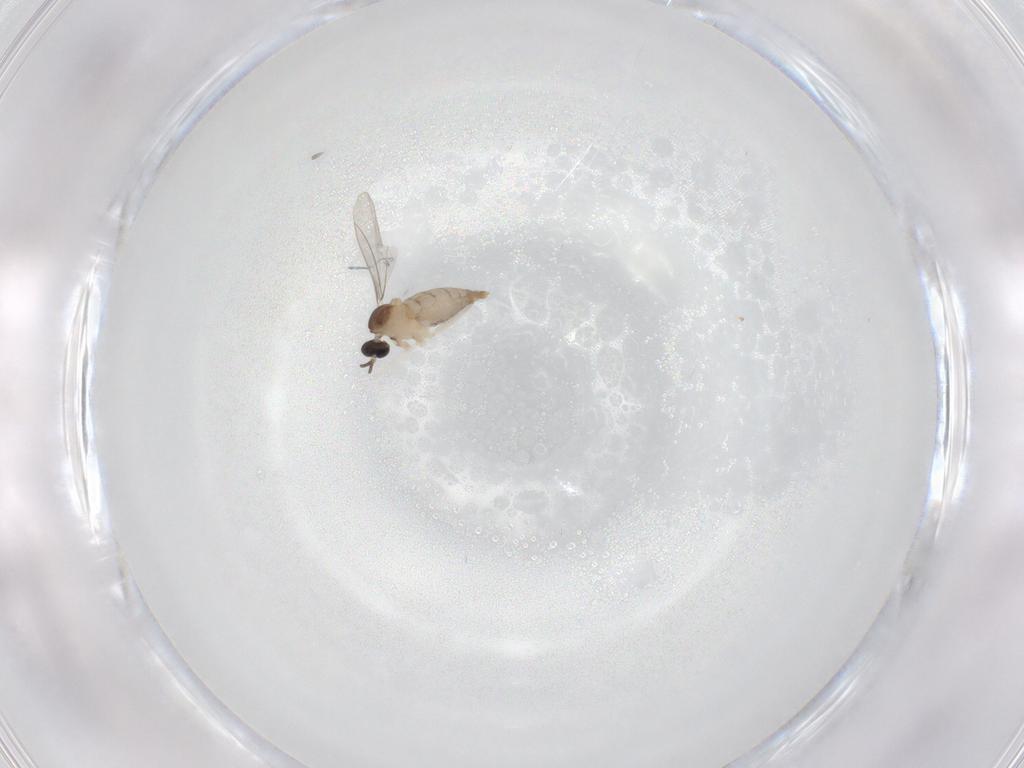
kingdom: Animalia
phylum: Arthropoda
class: Insecta
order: Diptera
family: Cecidomyiidae
